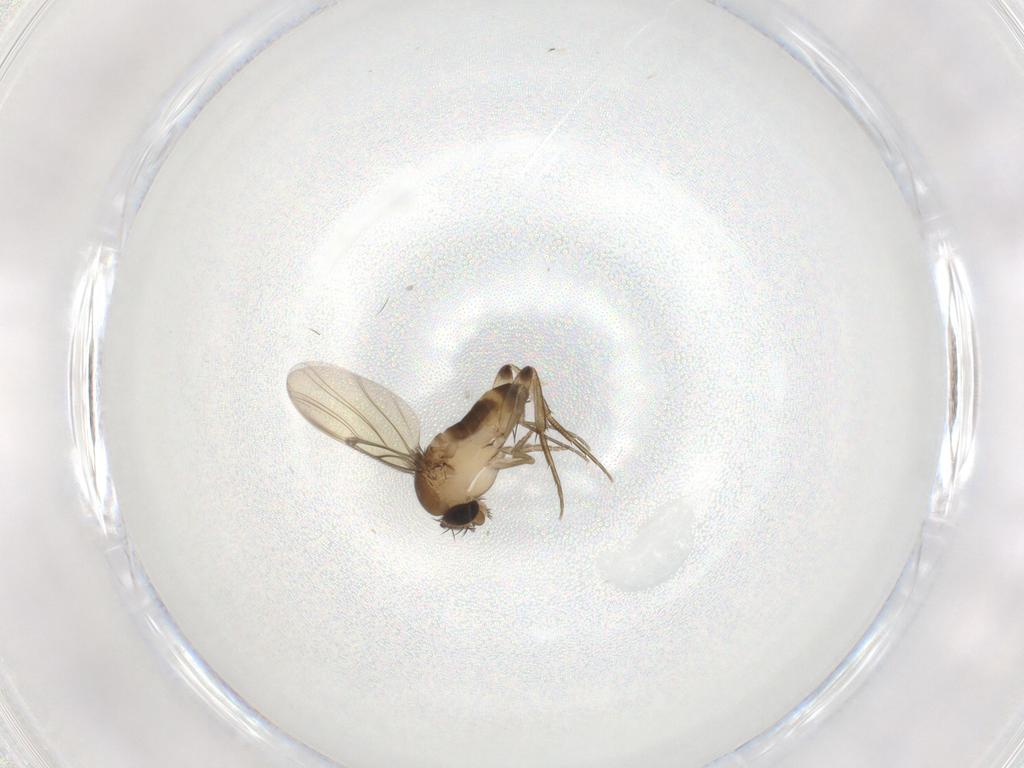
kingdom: Animalia
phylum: Arthropoda
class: Insecta
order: Diptera
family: Phoridae
